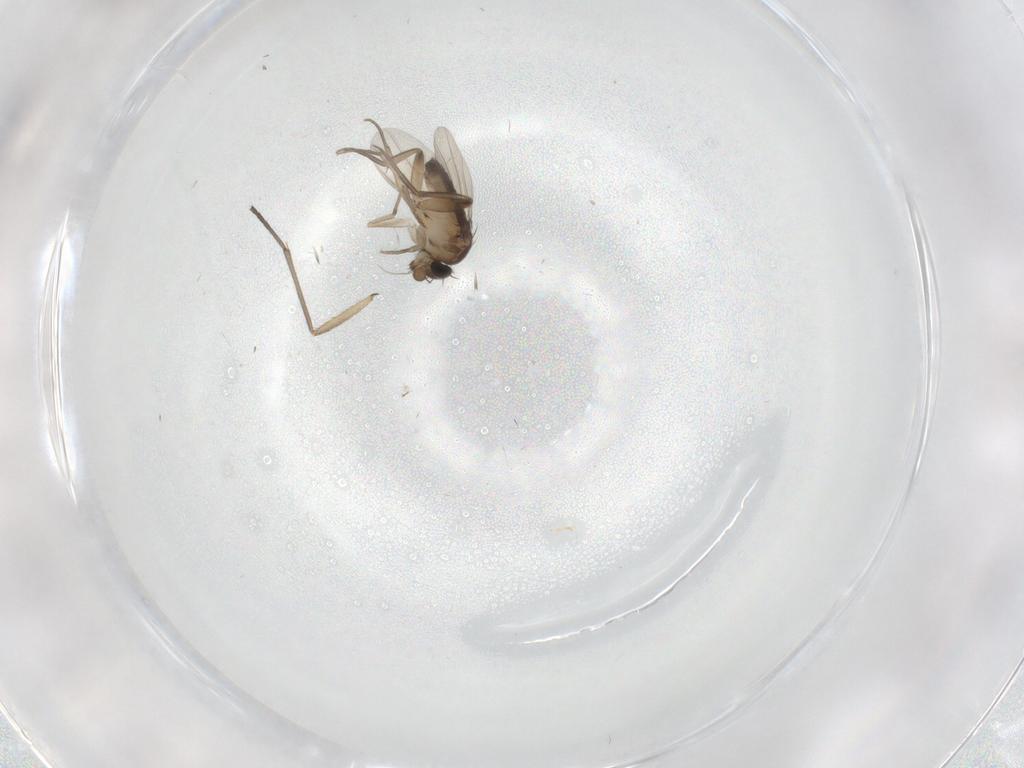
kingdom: Animalia
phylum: Arthropoda
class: Insecta
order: Diptera
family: Phoridae
